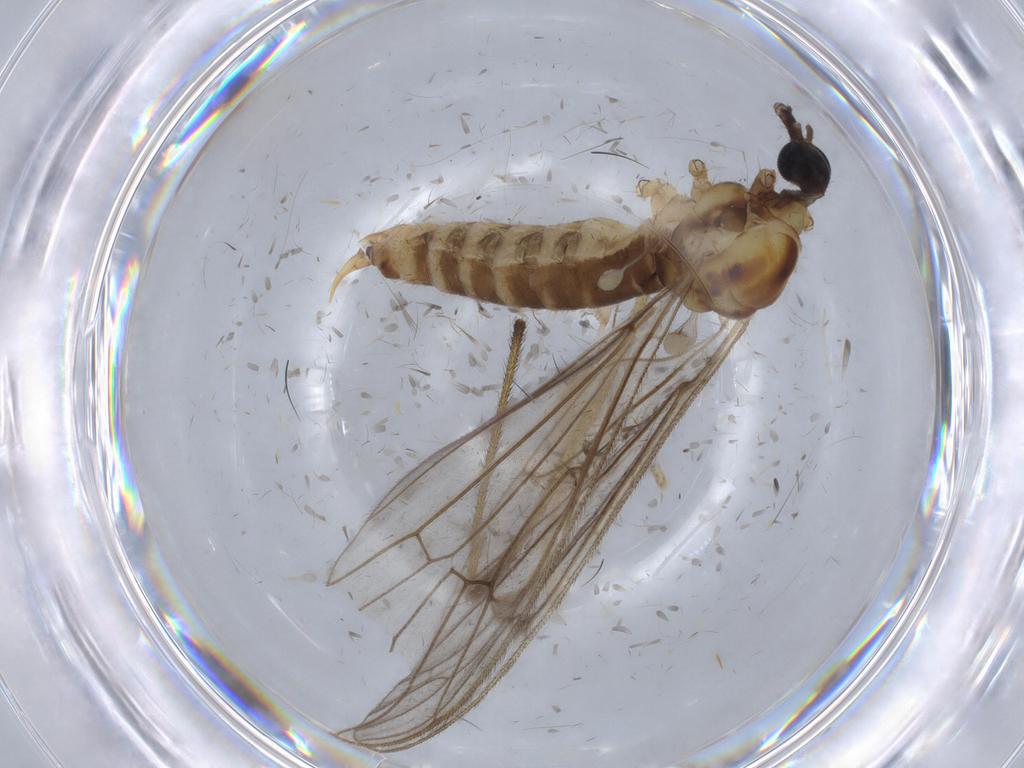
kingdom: Animalia
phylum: Arthropoda
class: Insecta
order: Diptera
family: Ceratopogonidae
